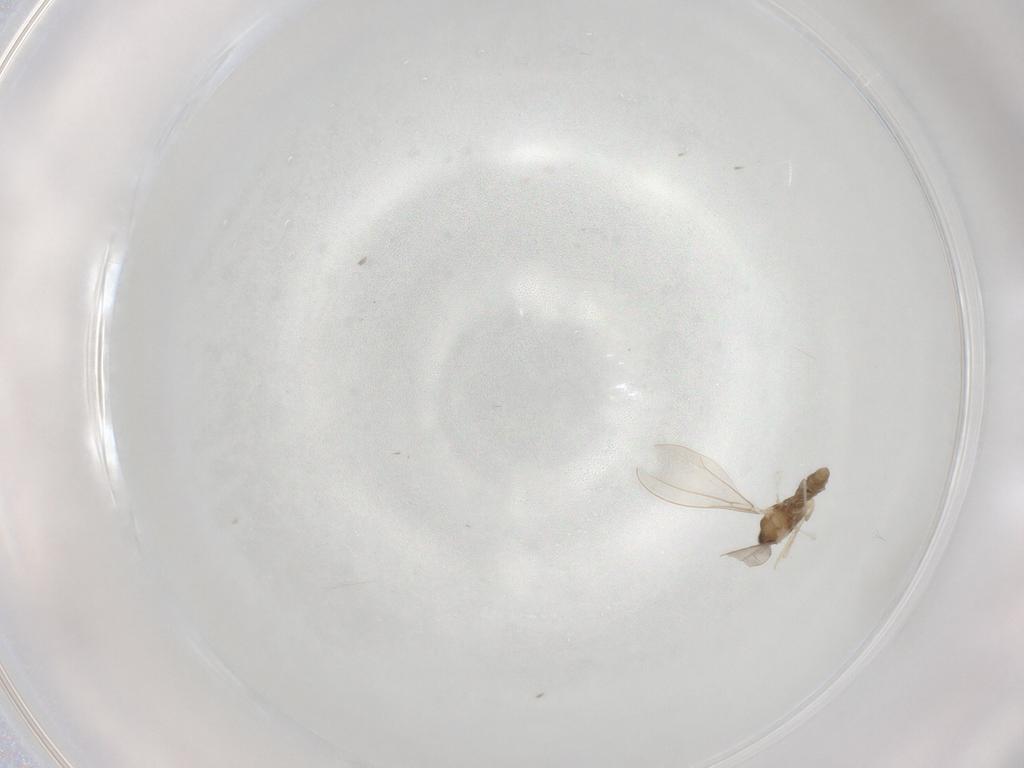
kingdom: Animalia
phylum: Arthropoda
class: Insecta
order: Diptera
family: Cecidomyiidae
